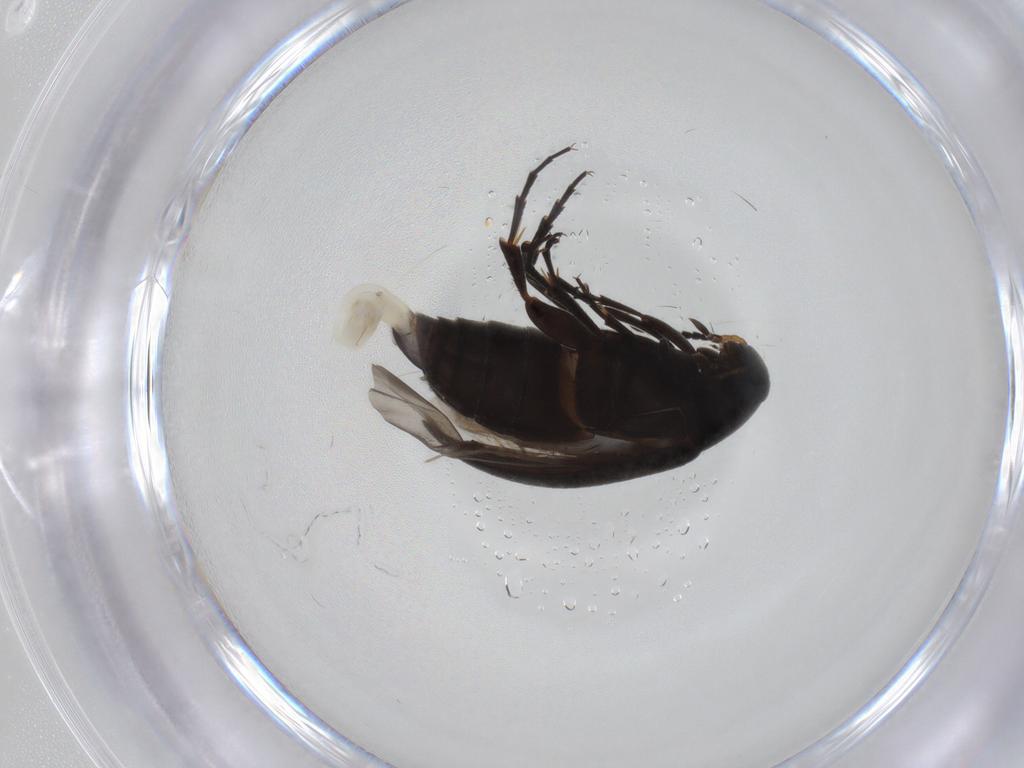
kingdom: Animalia
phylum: Arthropoda
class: Insecta
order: Coleoptera
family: Scraptiidae
